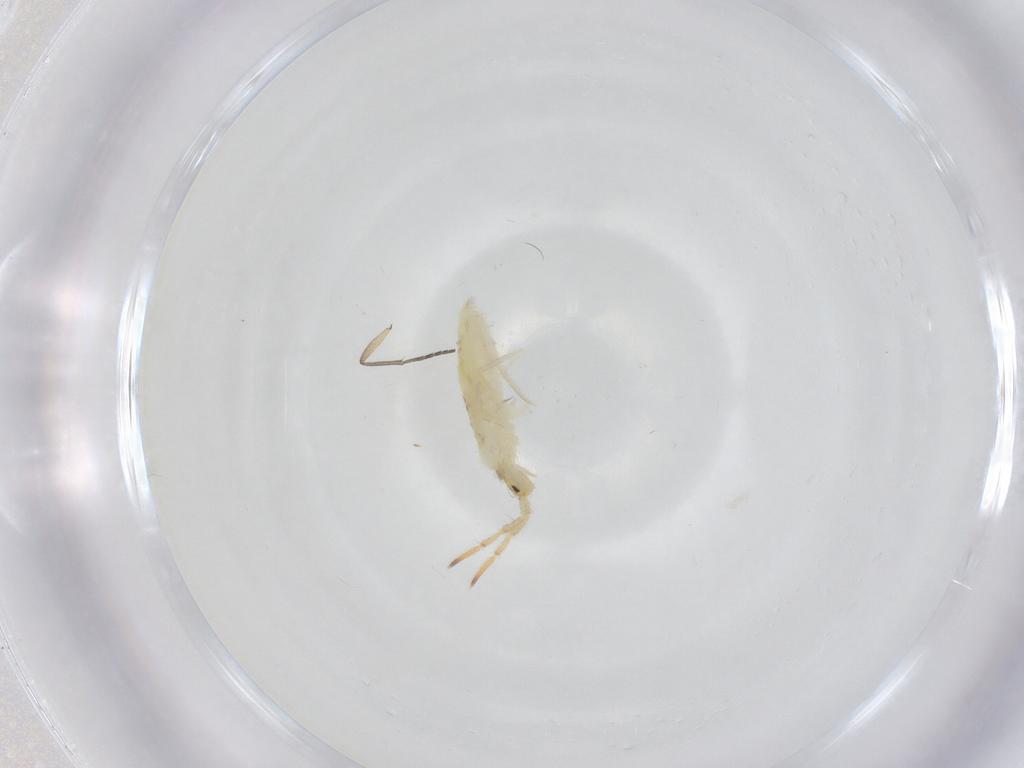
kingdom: Animalia
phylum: Arthropoda
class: Collembola
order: Entomobryomorpha
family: Entomobryidae
